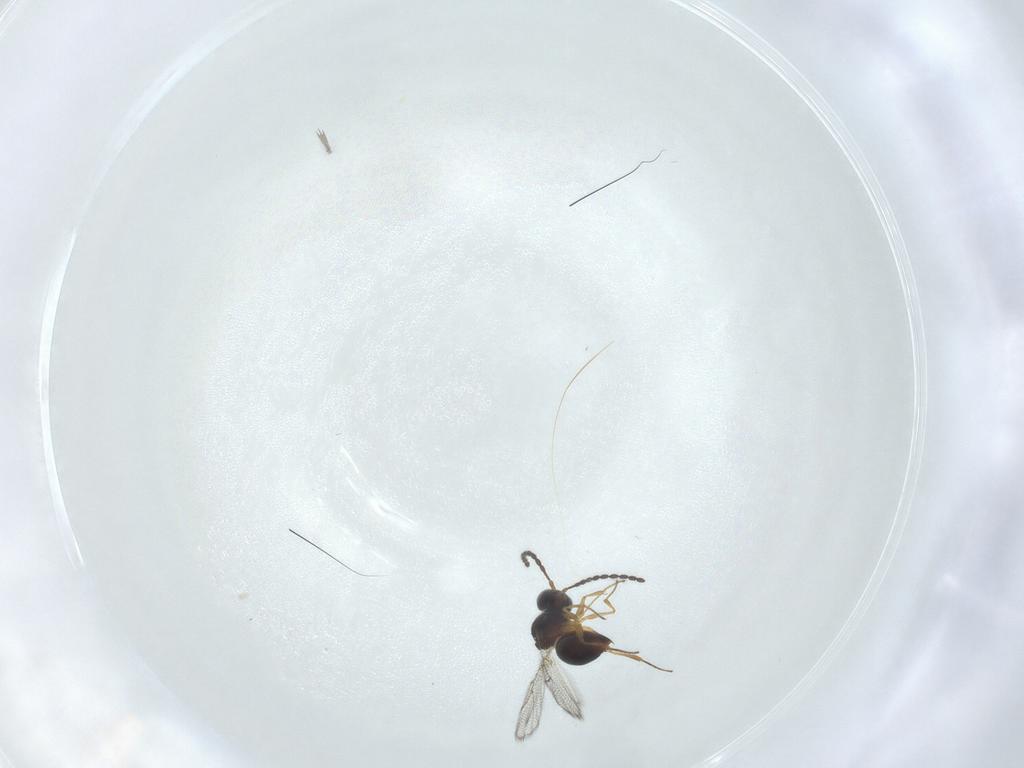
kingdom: Animalia
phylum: Arthropoda
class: Insecta
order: Hymenoptera
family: Figitidae
